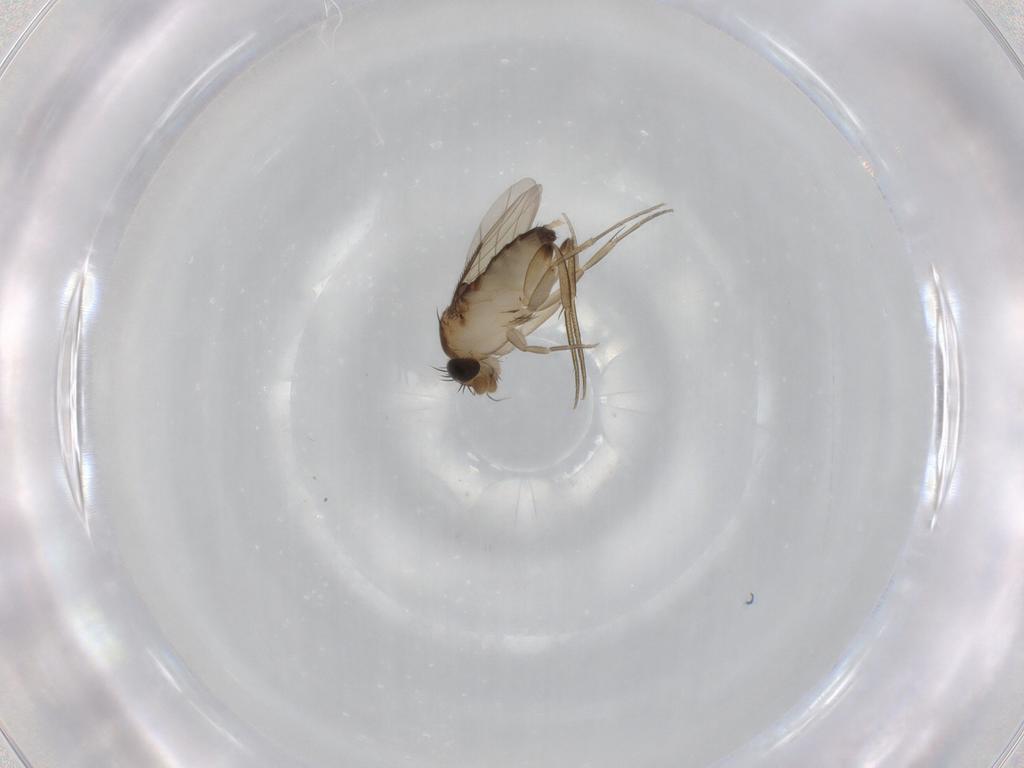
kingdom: Animalia
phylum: Arthropoda
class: Insecta
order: Diptera
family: Phoridae
